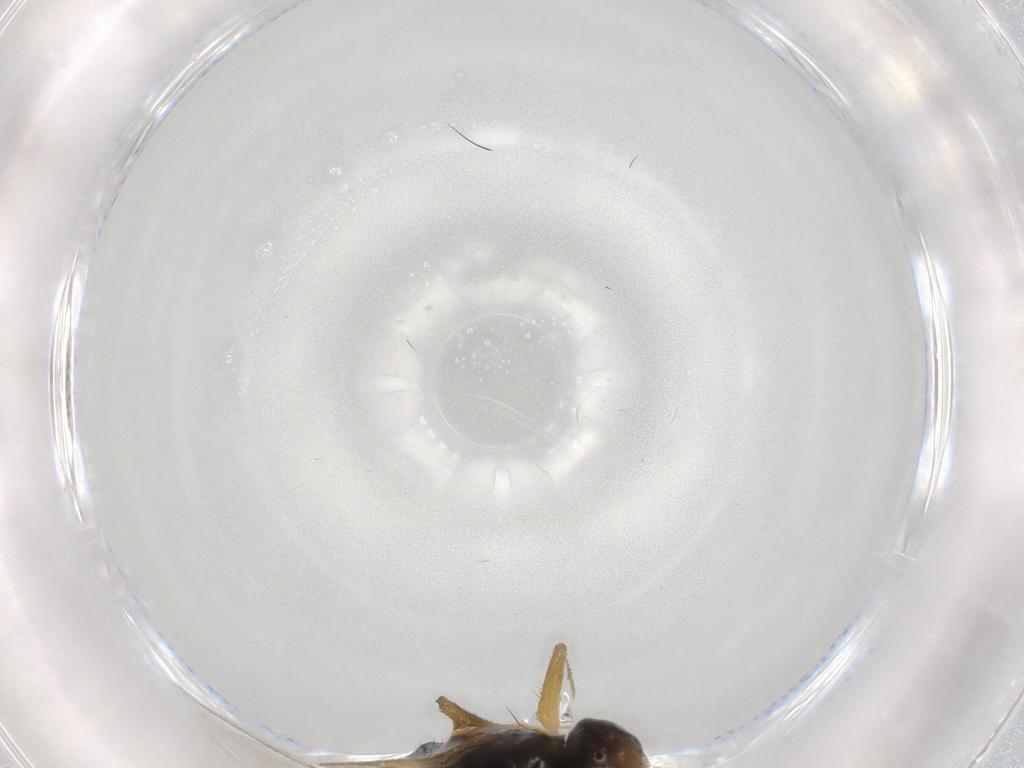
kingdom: Animalia
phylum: Arthropoda
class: Insecta
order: Diptera
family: Anthomyzidae
